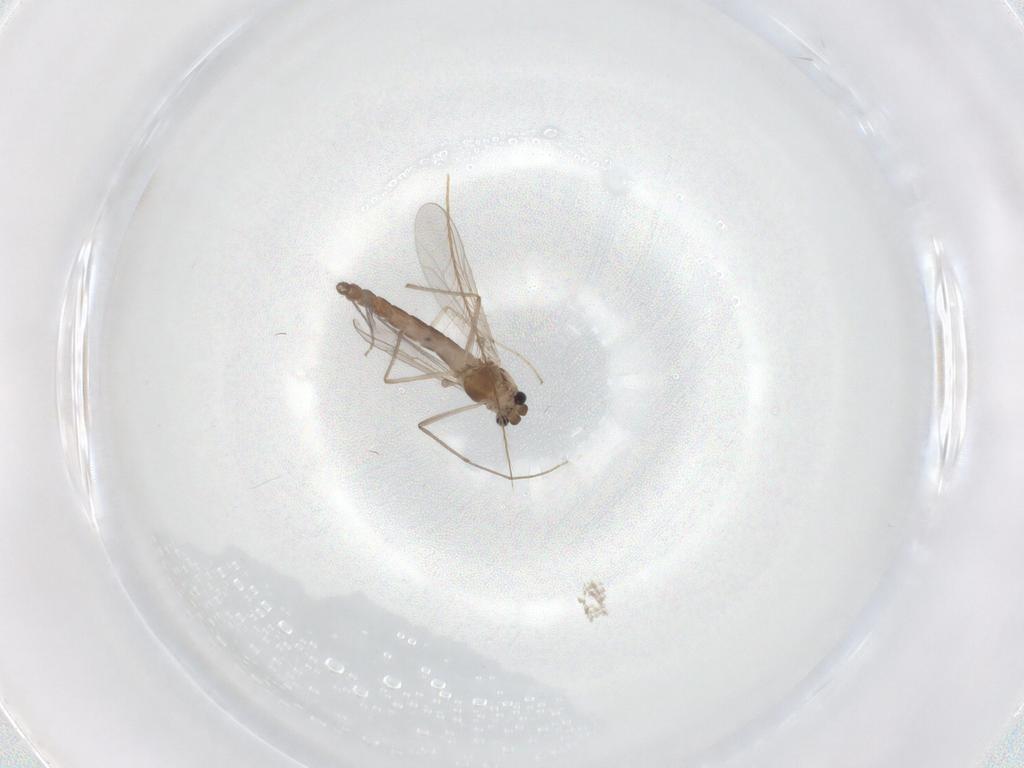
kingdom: Animalia
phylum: Arthropoda
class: Insecta
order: Diptera
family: Chironomidae
